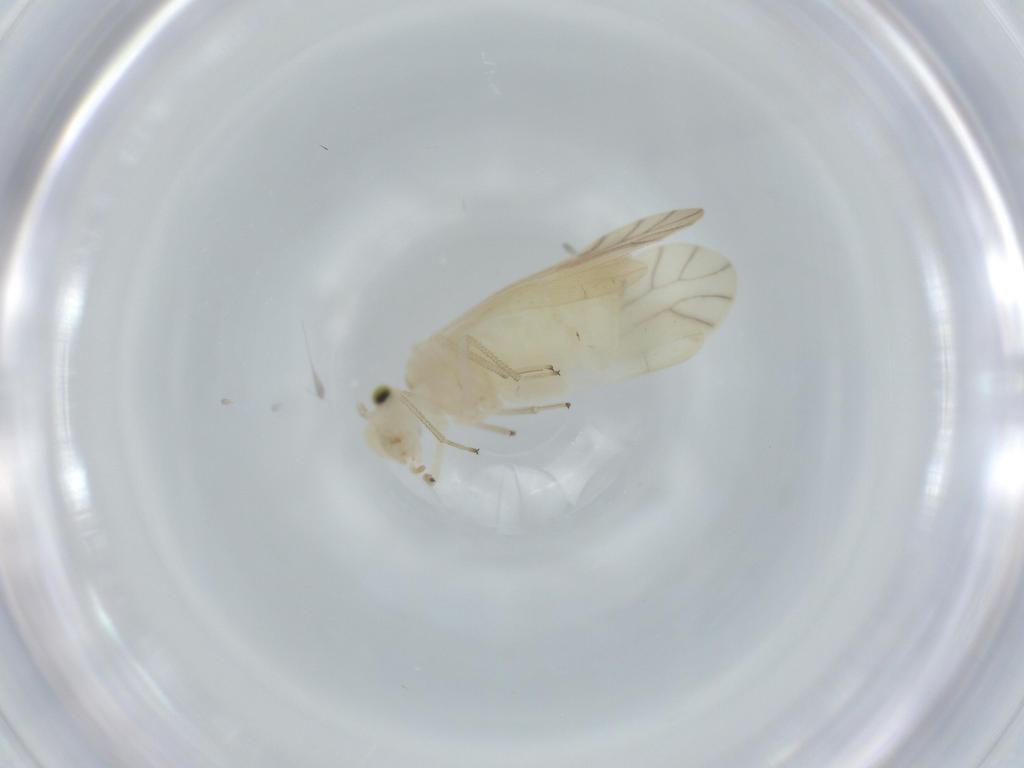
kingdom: Animalia
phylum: Arthropoda
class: Insecta
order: Psocodea
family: Caeciliusidae
